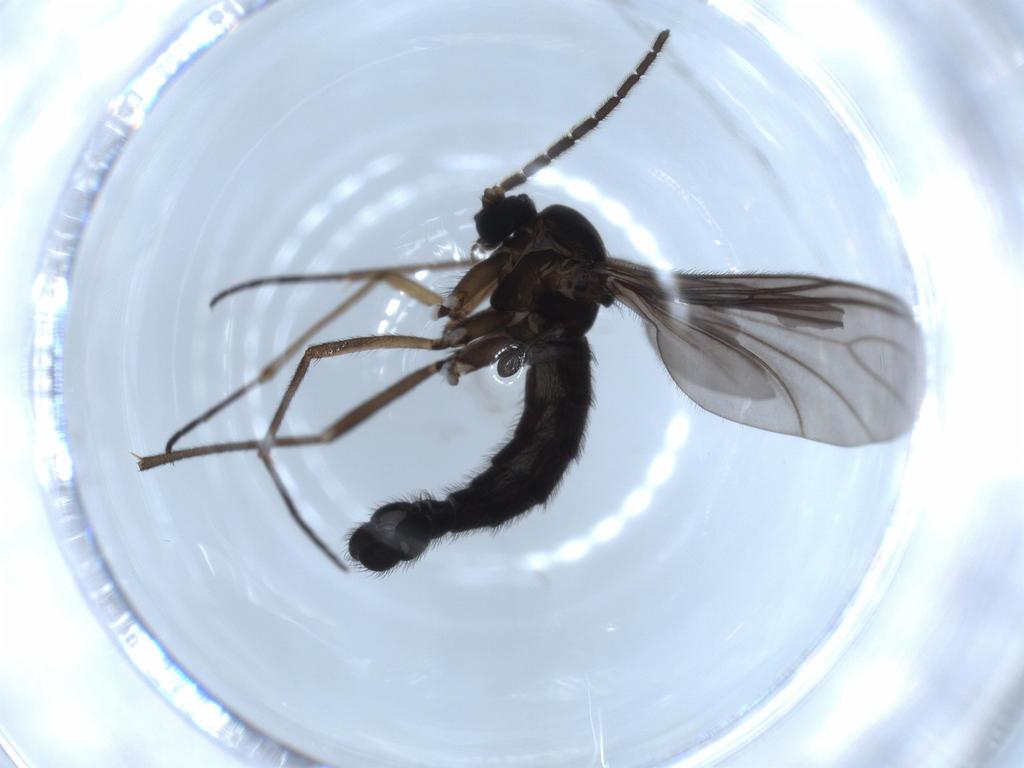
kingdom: Animalia
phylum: Arthropoda
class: Insecta
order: Diptera
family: Sciaridae
